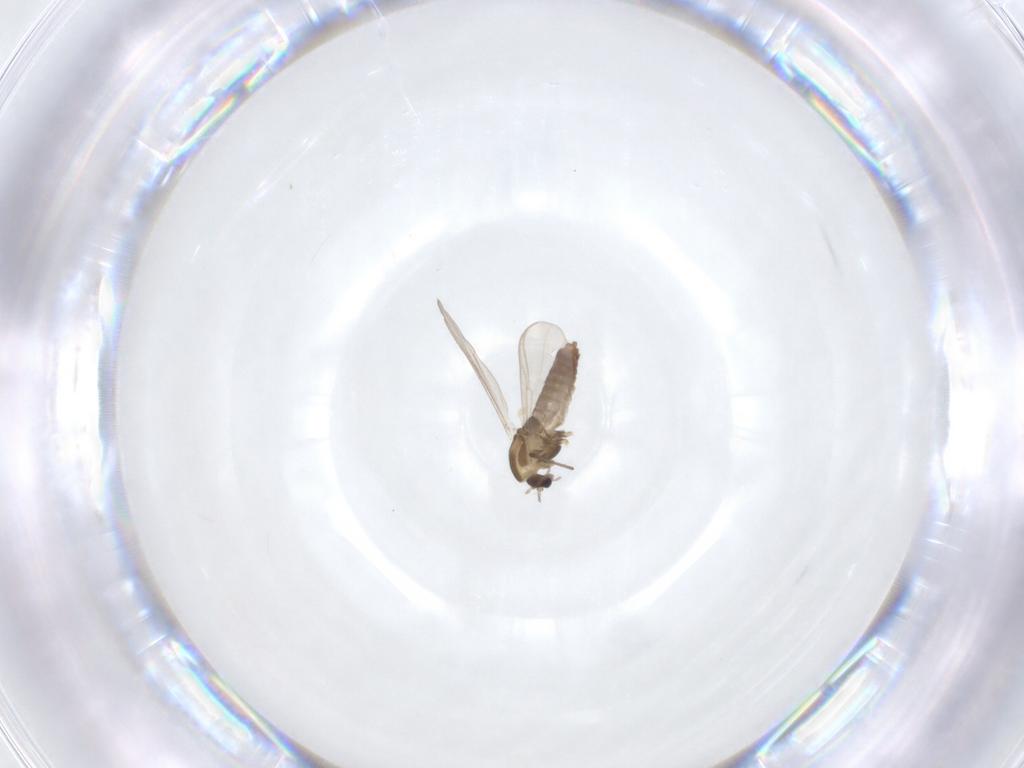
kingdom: Animalia
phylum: Arthropoda
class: Insecta
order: Diptera
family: Chironomidae
